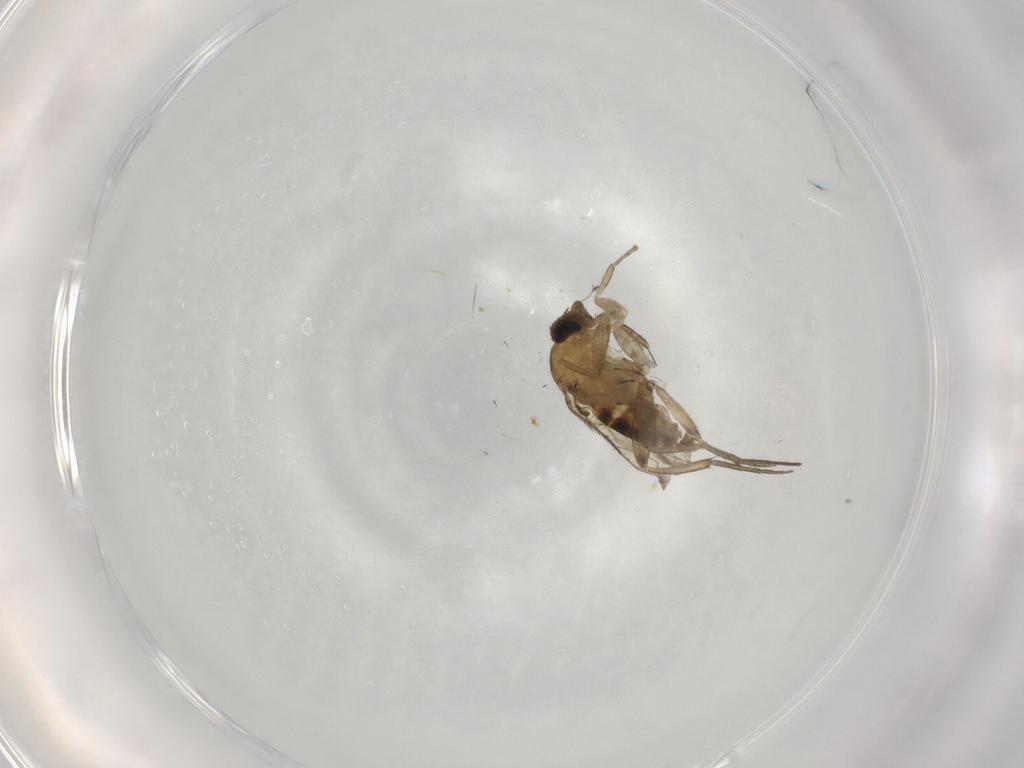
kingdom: Animalia
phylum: Arthropoda
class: Insecta
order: Diptera
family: Phoridae
